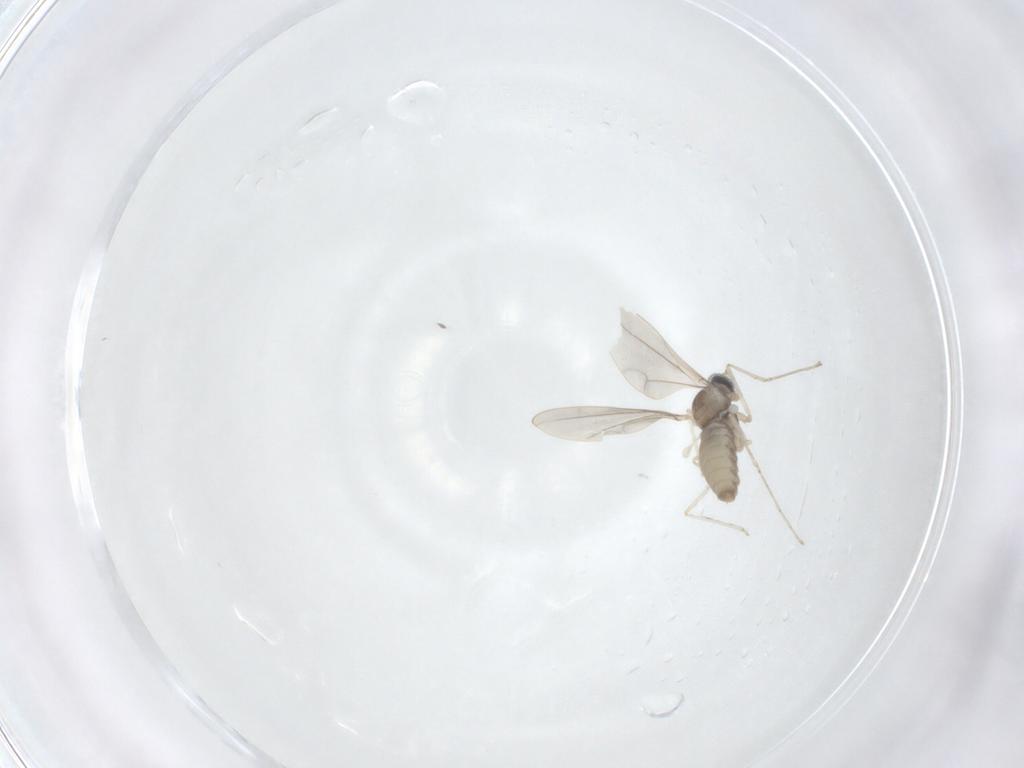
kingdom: Animalia
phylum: Arthropoda
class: Insecta
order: Diptera
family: Cecidomyiidae
